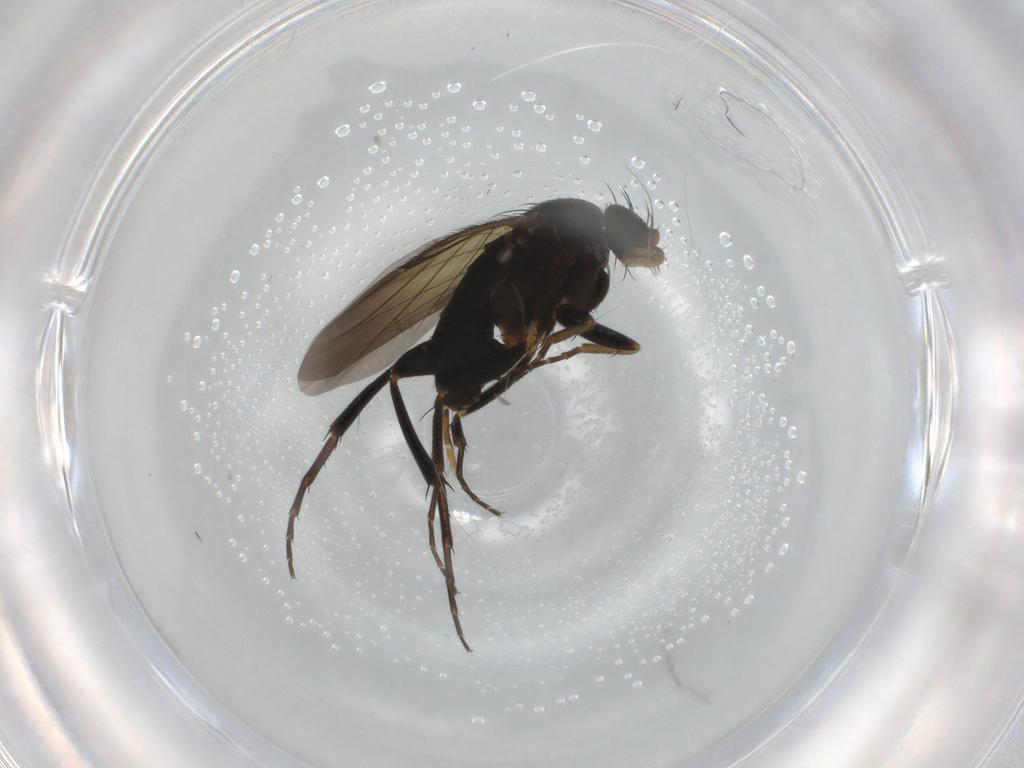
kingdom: Animalia
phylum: Arthropoda
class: Insecta
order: Diptera
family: Phoridae
